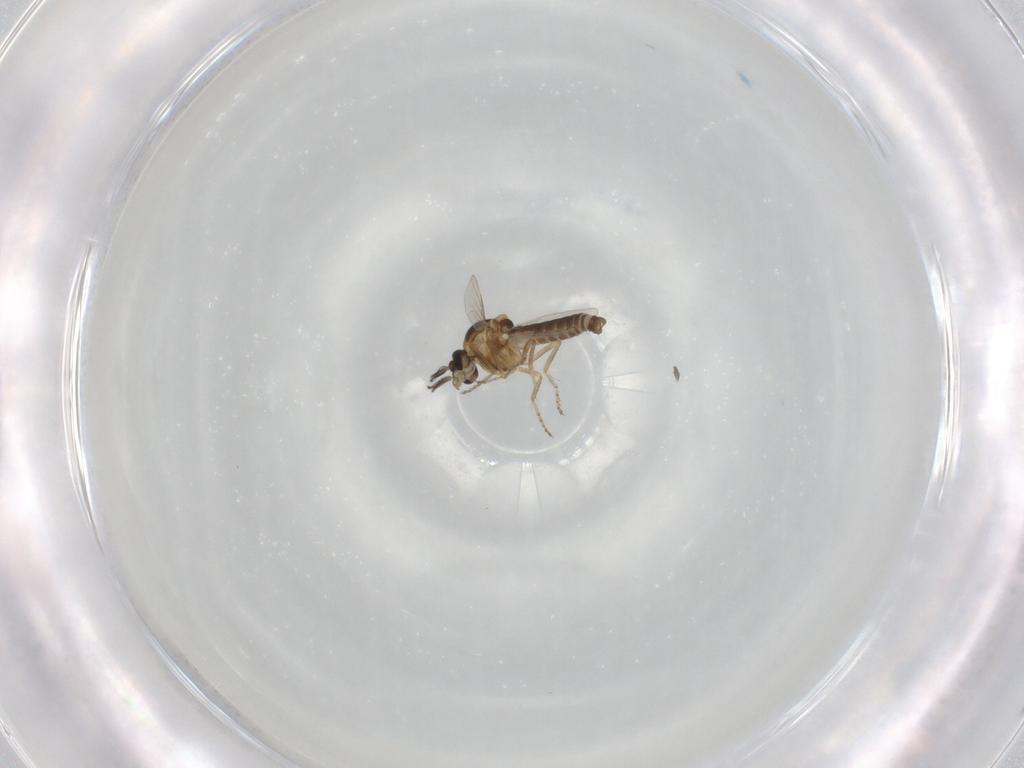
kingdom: Animalia
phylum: Arthropoda
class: Insecta
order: Diptera
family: Ceratopogonidae
